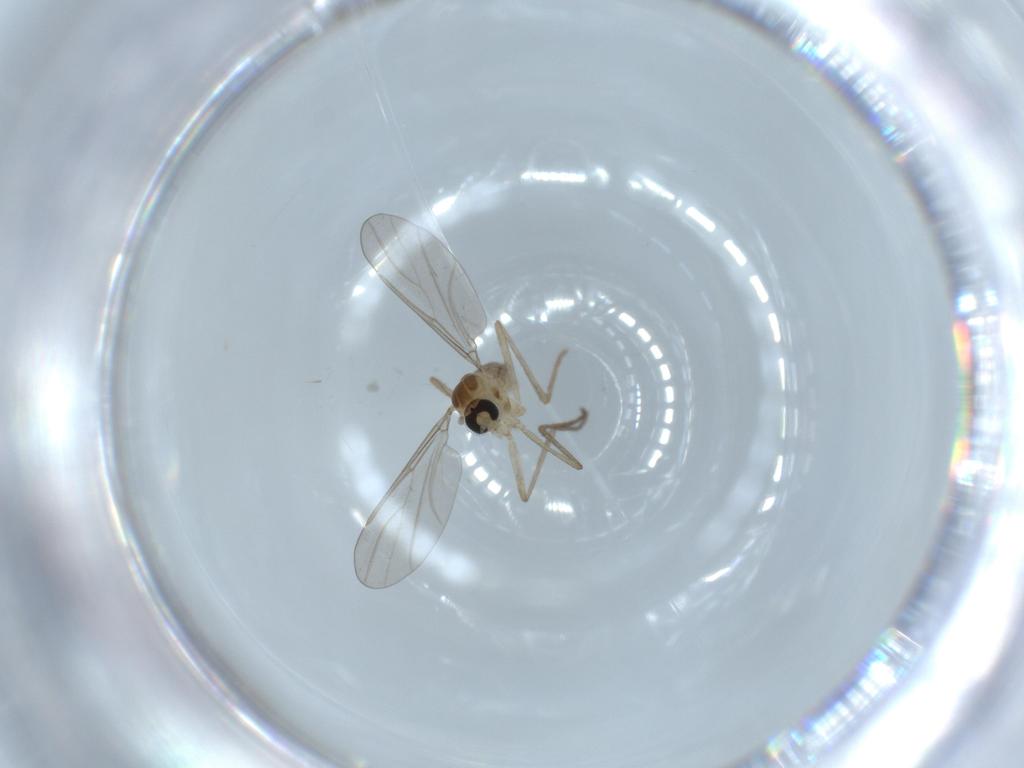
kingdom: Animalia
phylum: Arthropoda
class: Insecta
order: Diptera
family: Cecidomyiidae
